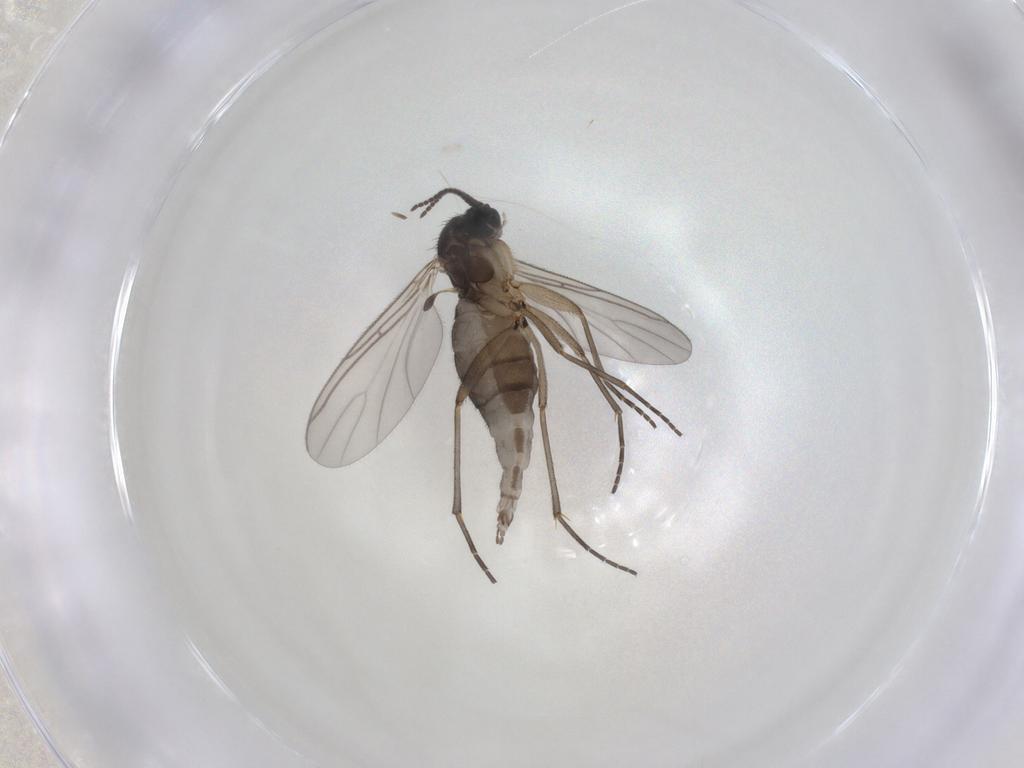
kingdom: Animalia
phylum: Arthropoda
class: Insecta
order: Diptera
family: Sciaridae
